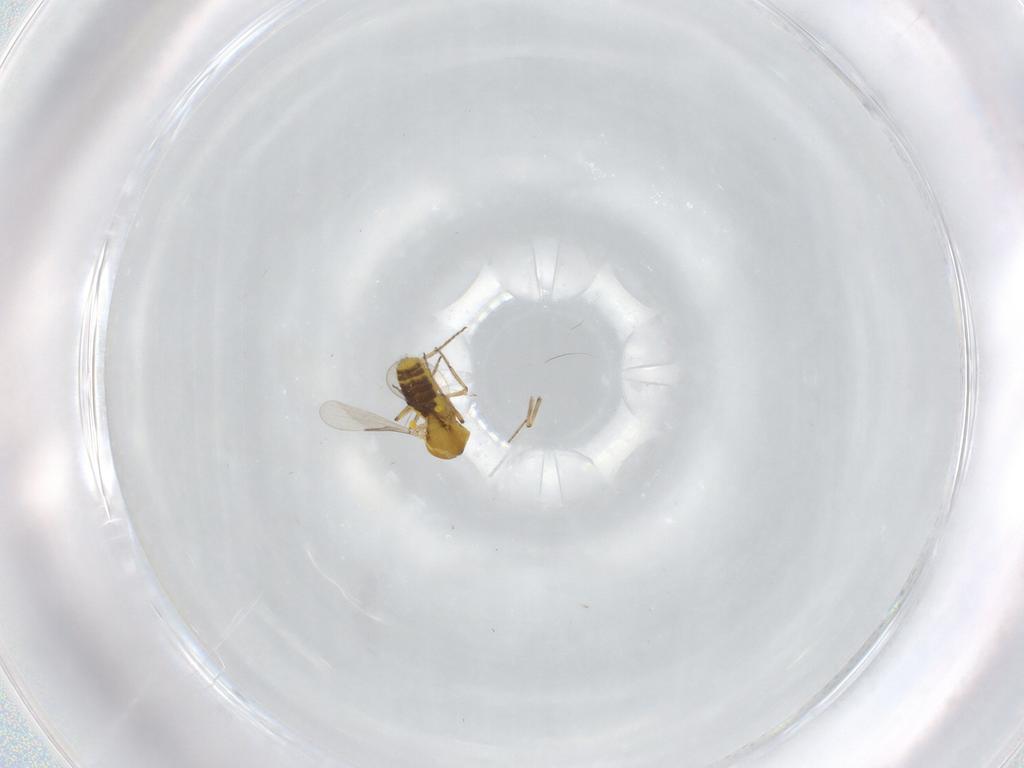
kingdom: Animalia
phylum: Arthropoda
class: Insecta
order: Diptera
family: Ceratopogonidae
